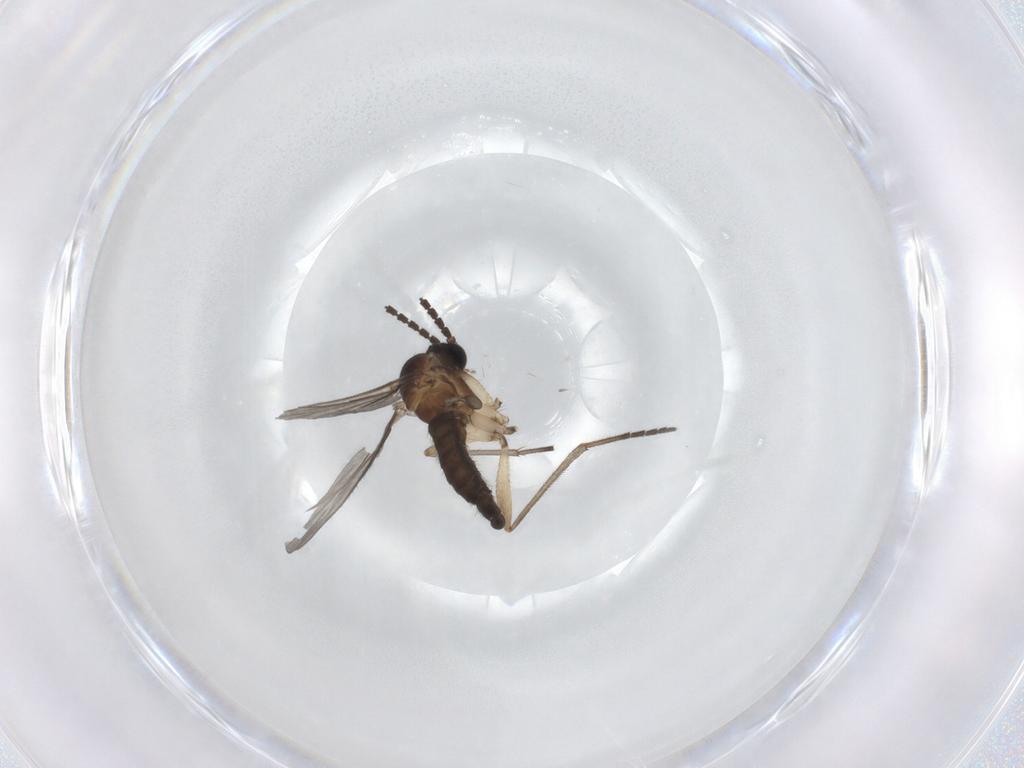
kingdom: Animalia
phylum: Arthropoda
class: Insecta
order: Diptera
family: Sciaridae
